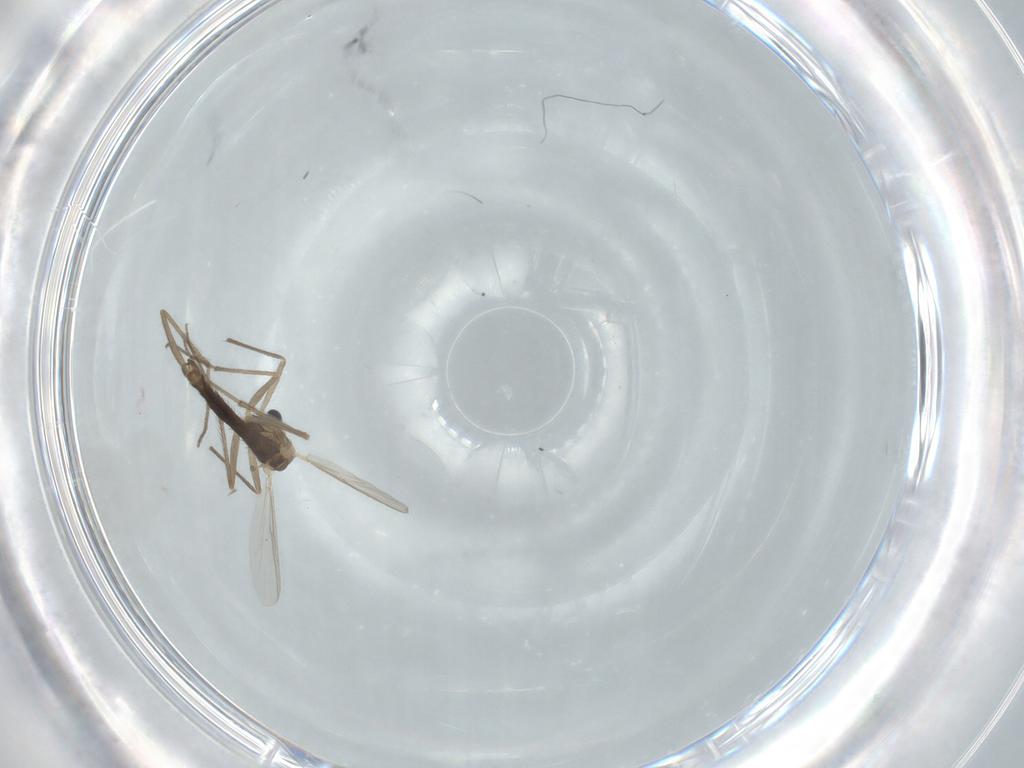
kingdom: Animalia
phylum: Arthropoda
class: Insecta
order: Diptera
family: Chironomidae
